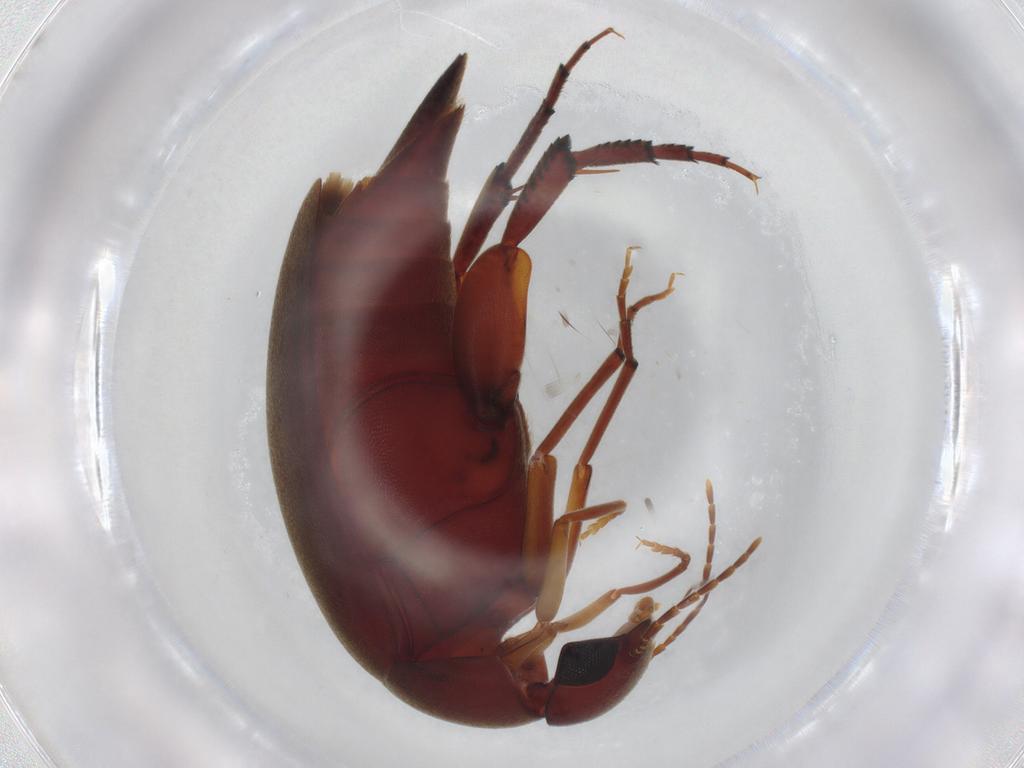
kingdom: Animalia
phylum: Arthropoda
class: Insecta
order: Coleoptera
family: Mordellidae
